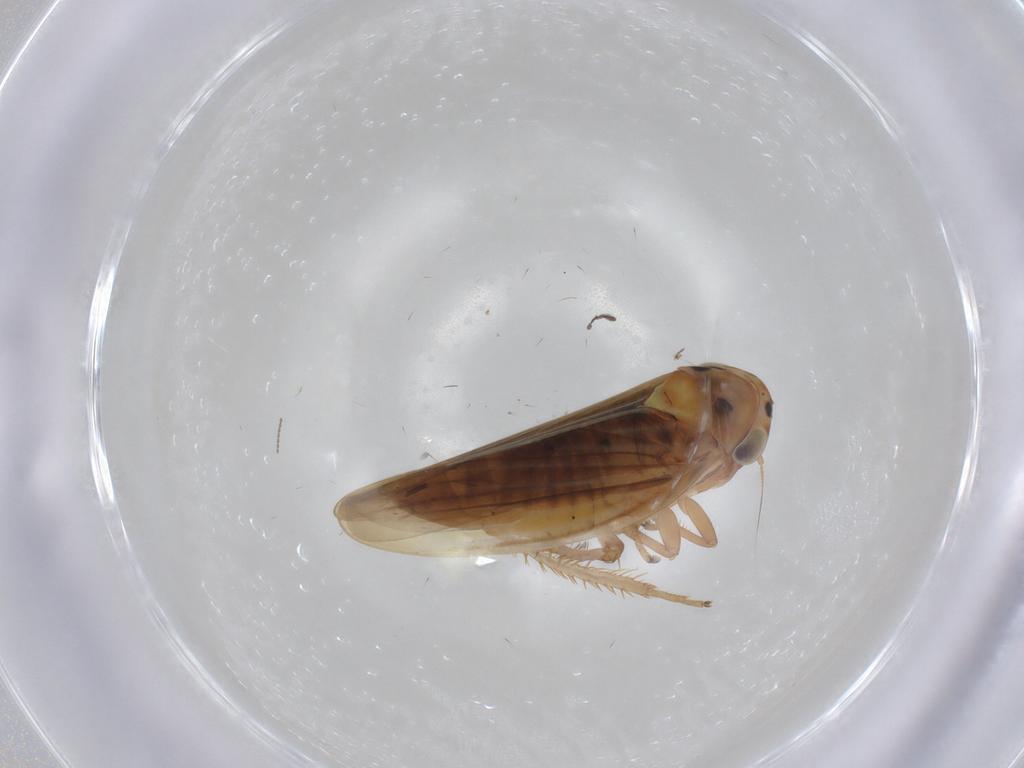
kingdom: Animalia
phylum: Arthropoda
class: Insecta
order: Hemiptera
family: Cicadellidae
